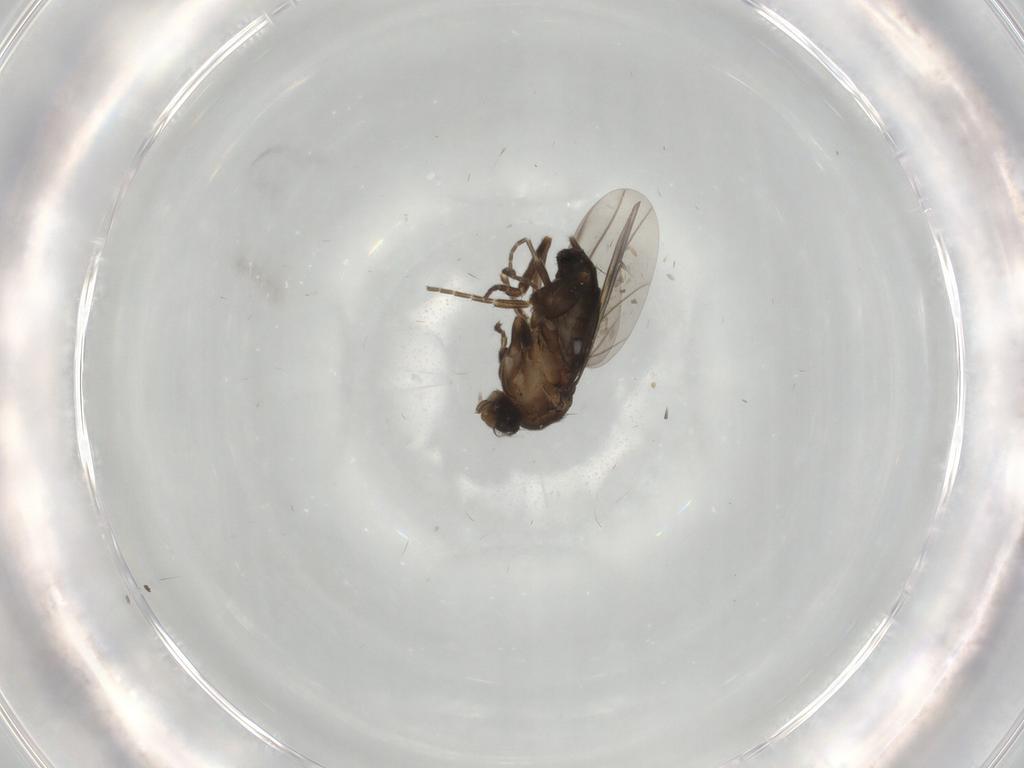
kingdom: Animalia
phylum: Arthropoda
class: Insecta
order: Diptera
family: Phoridae
